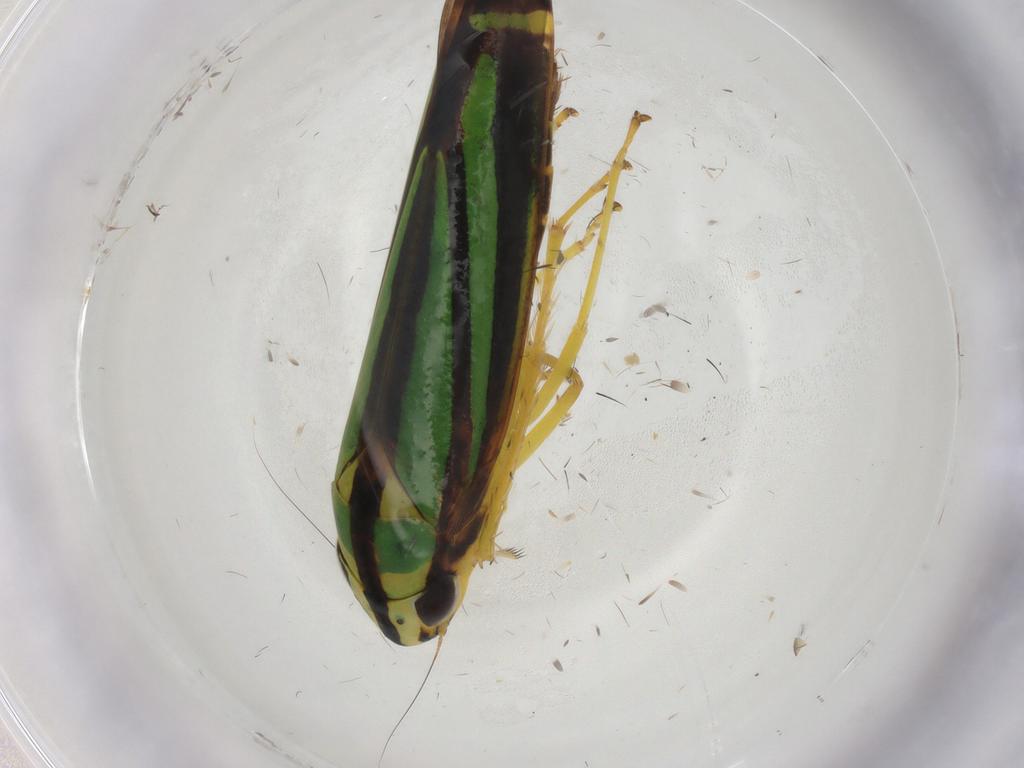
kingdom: Animalia
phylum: Arthropoda
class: Insecta
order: Hemiptera
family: Cicadellidae
